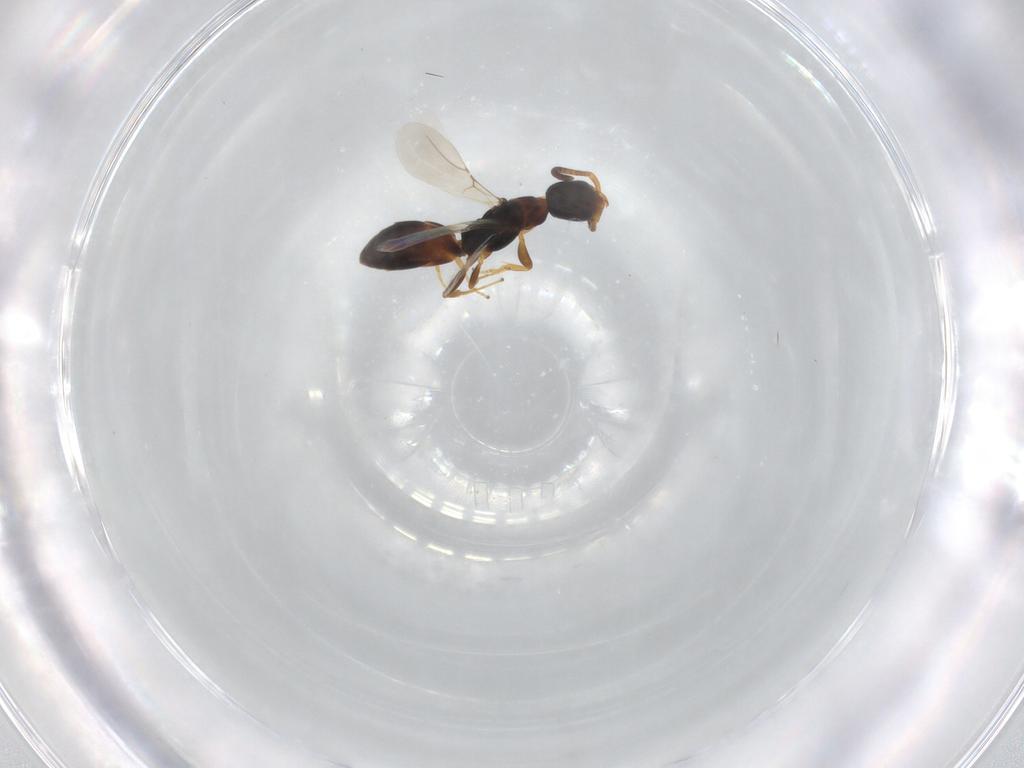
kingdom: Animalia
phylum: Arthropoda
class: Insecta
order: Hymenoptera
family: Bethylidae
